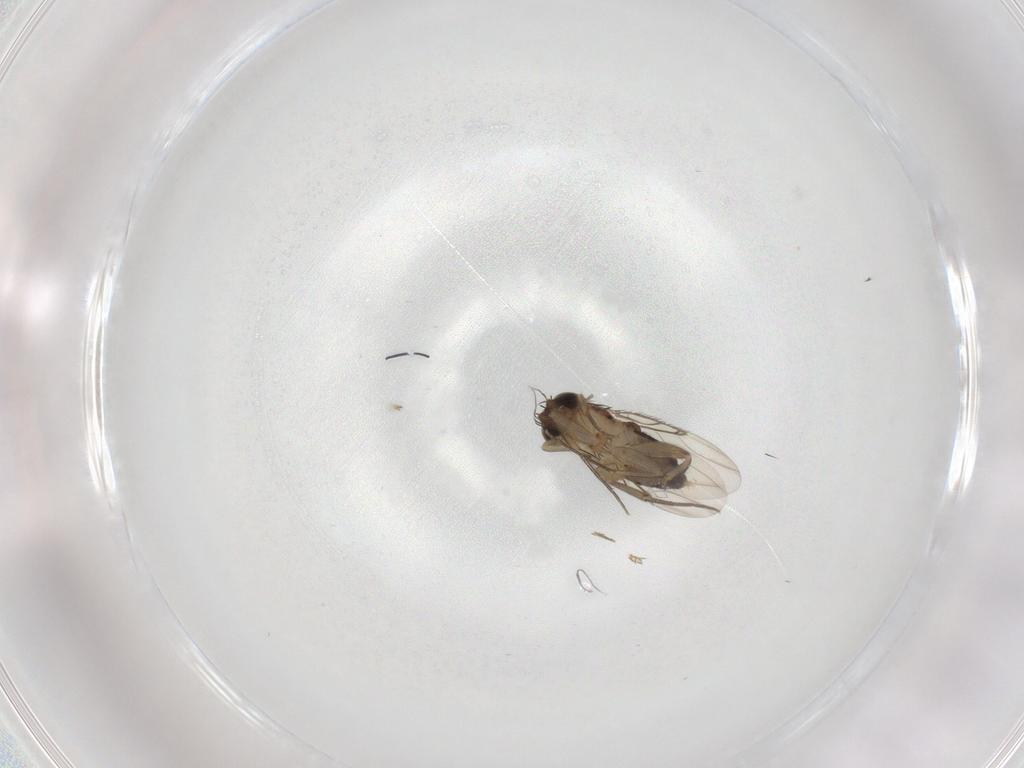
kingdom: Animalia
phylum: Arthropoda
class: Insecta
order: Diptera
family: Phoridae
